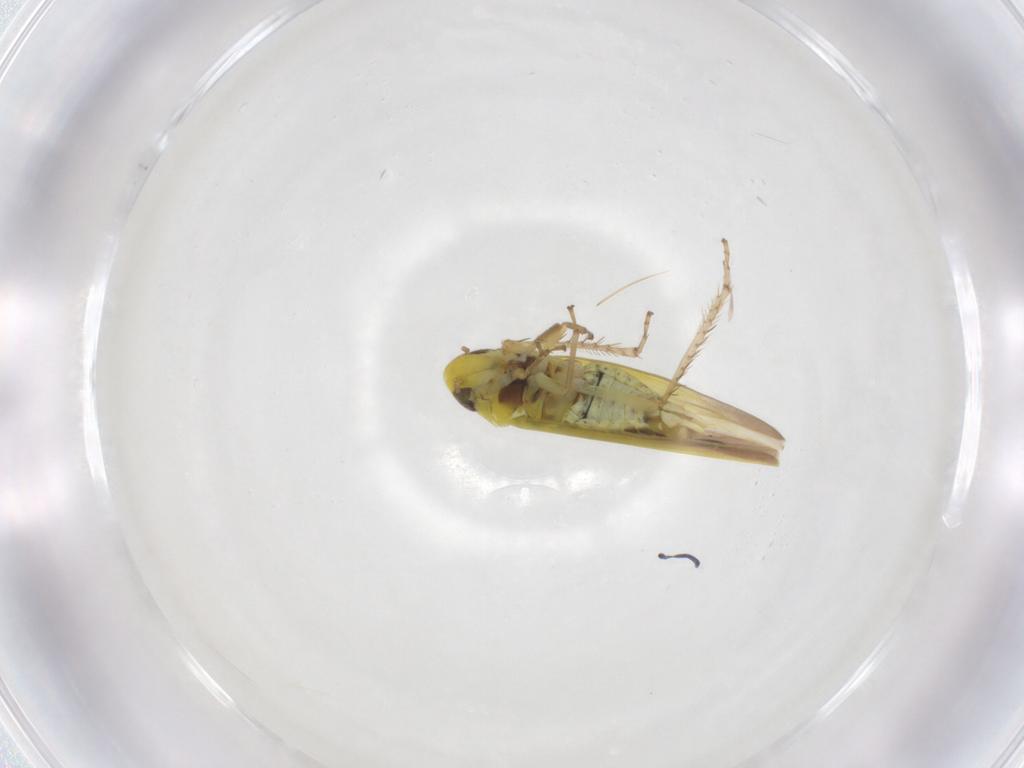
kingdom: Animalia
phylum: Arthropoda
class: Insecta
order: Hemiptera
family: Cicadellidae
